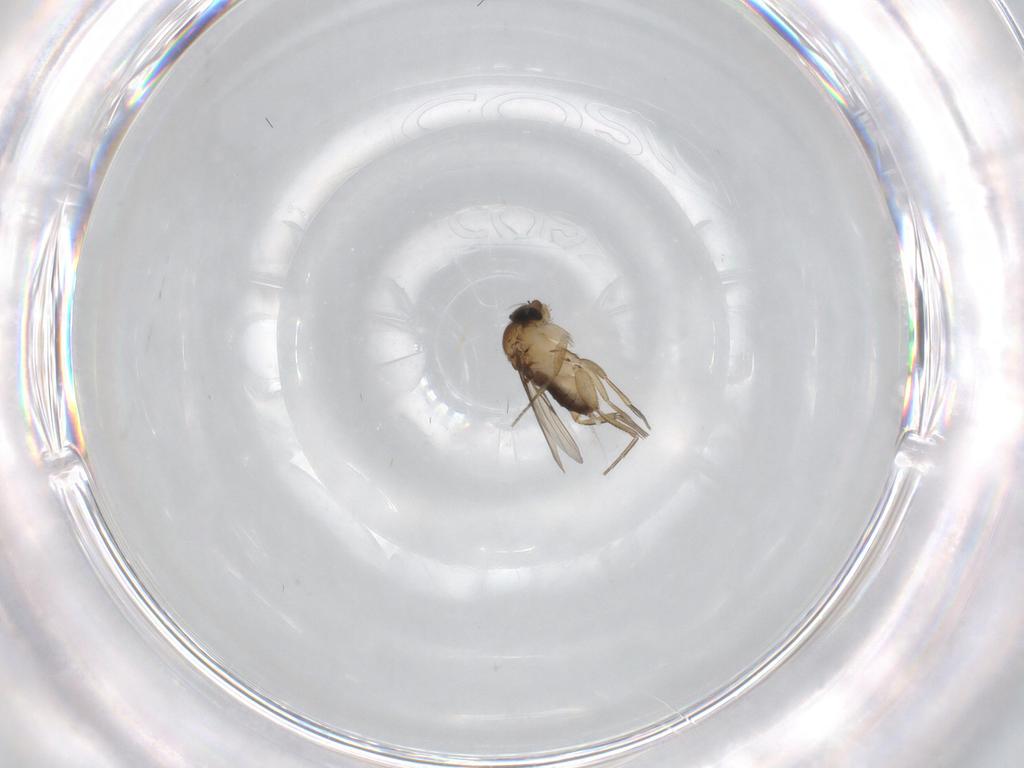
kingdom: Animalia
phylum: Arthropoda
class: Insecta
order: Diptera
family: Phoridae
